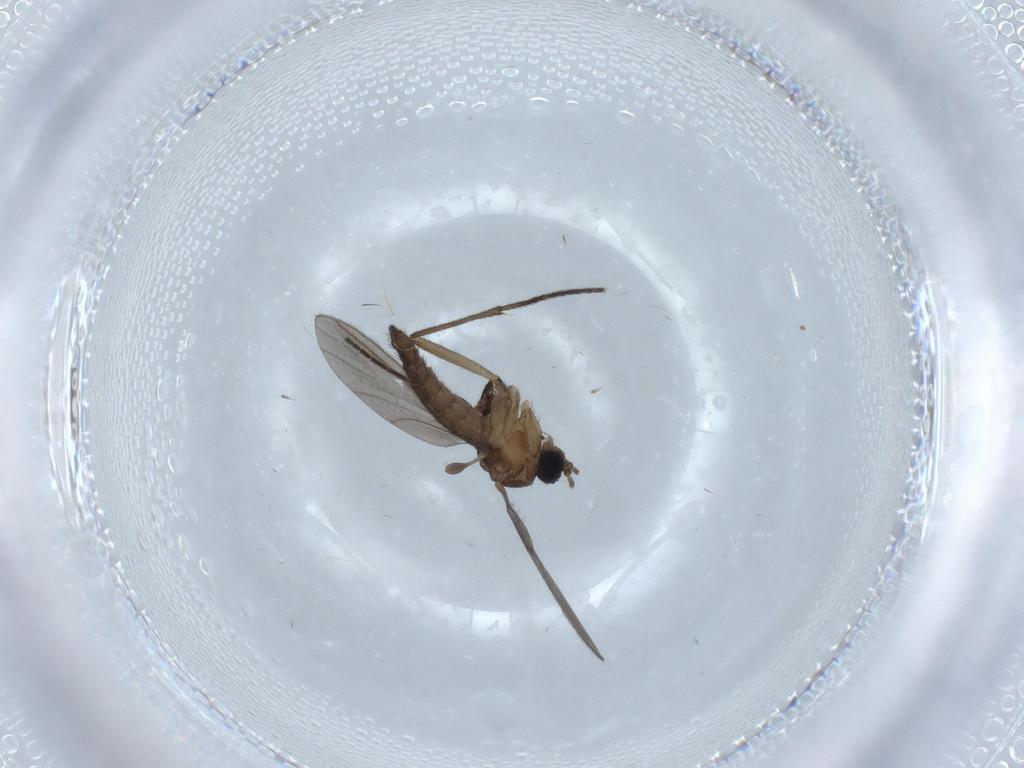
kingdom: Animalia
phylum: Arthropoda
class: Insecta
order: Diptera
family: Sciaridae
